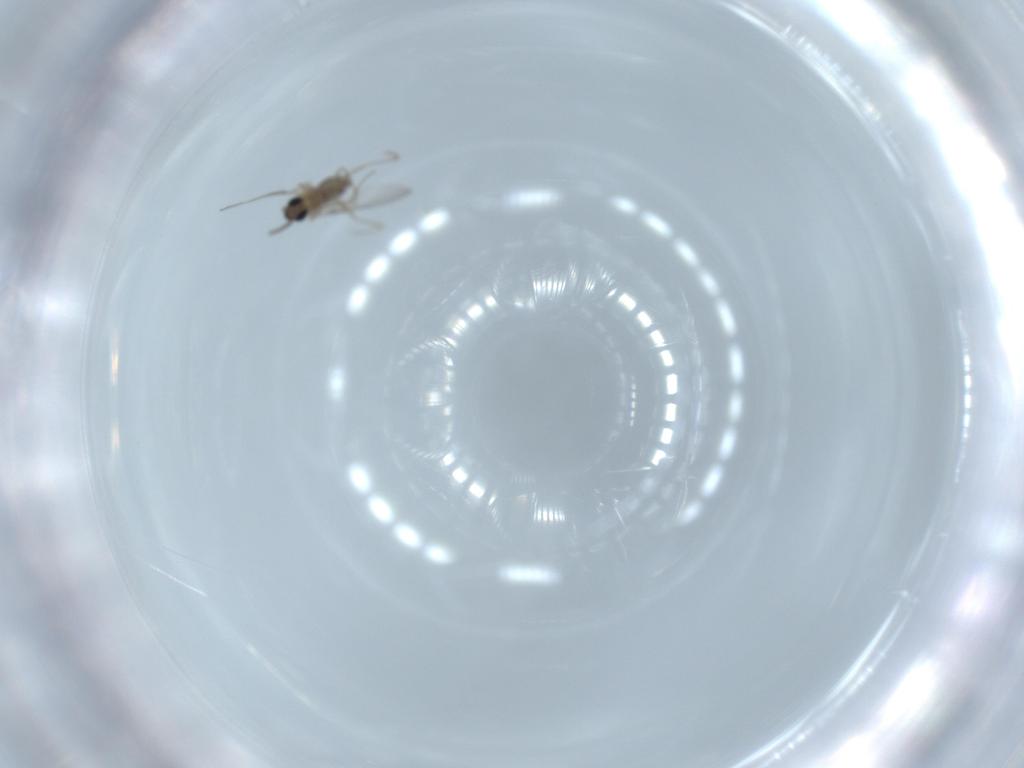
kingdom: Animalia
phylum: Arthropoda
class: Insecta
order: Diptera
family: Cecidomyiidae
